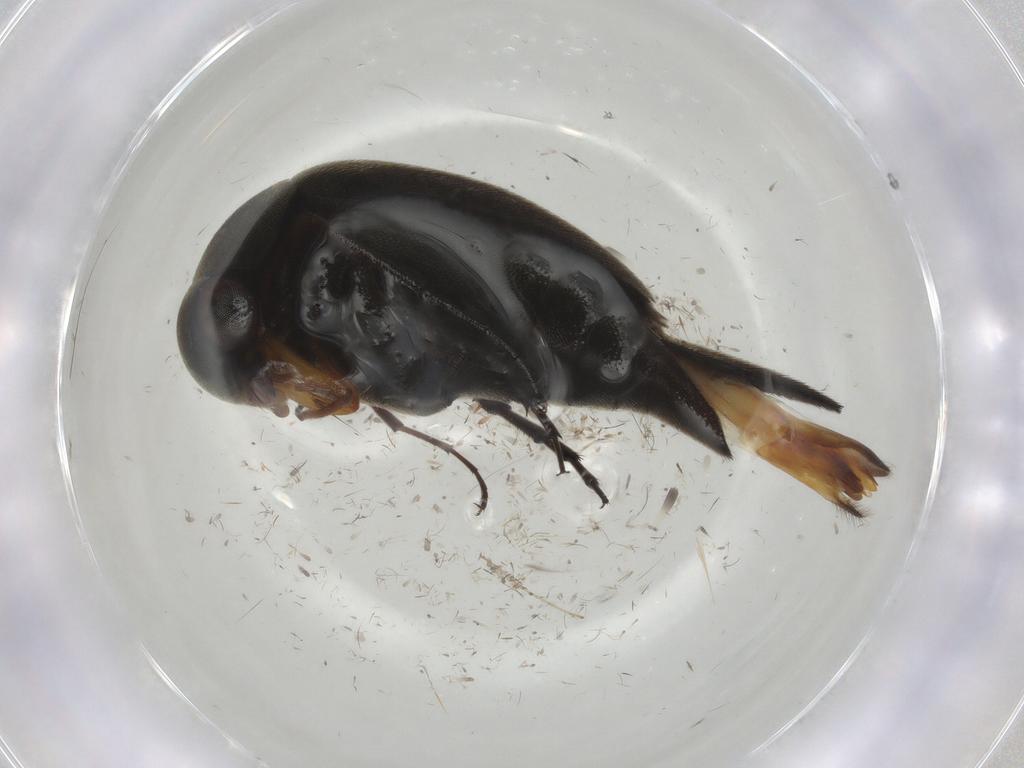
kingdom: Animalia
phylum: Arthropoda
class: Insecta
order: Coleoptera
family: Mordellidae
